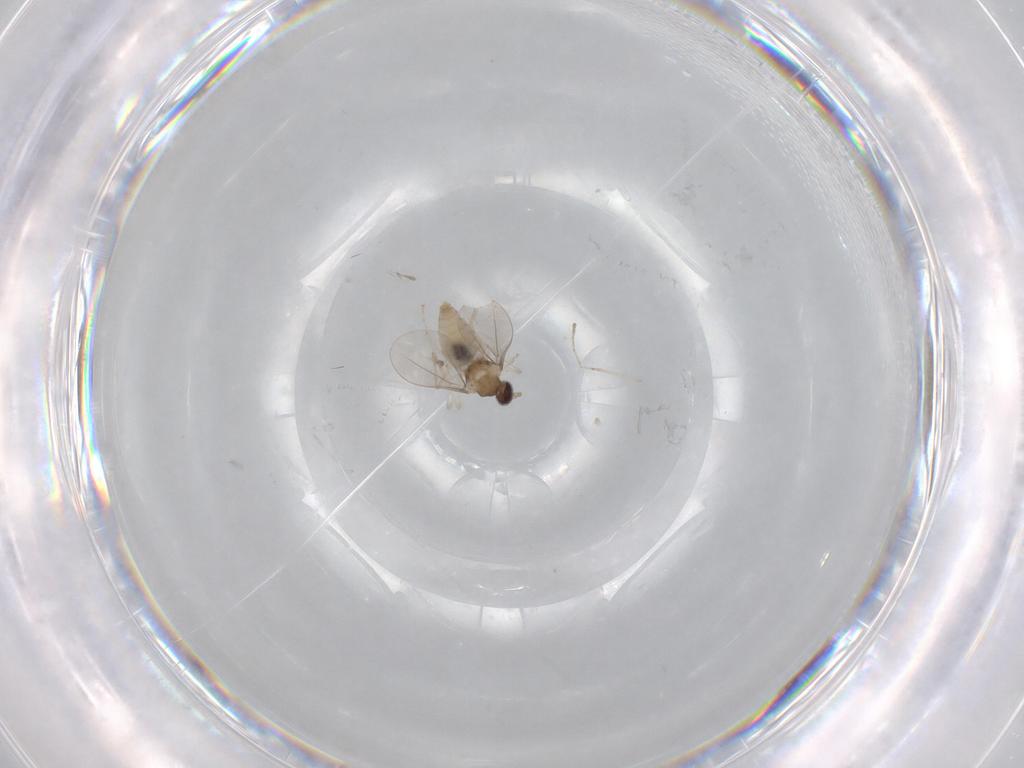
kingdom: Animalia
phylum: Arthropoda
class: Insecta
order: Diptera
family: Cecidomyiidae
